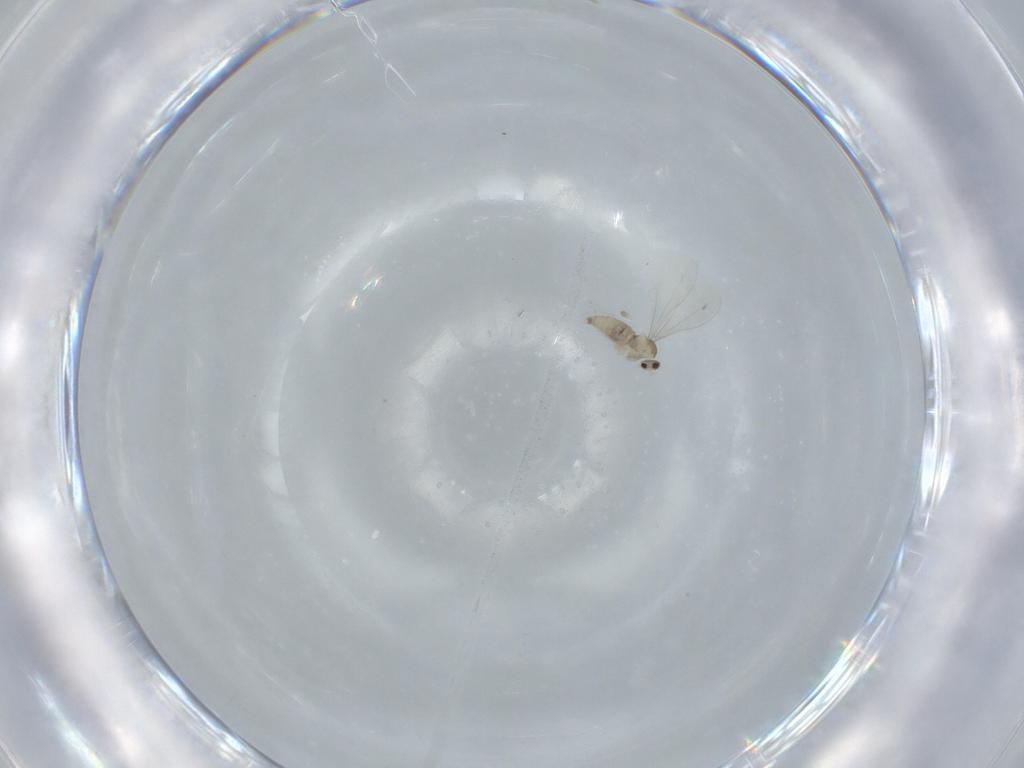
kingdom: Animalia
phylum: Arthropoda
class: Insecta
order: Diptera
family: Cecidomyiidae
